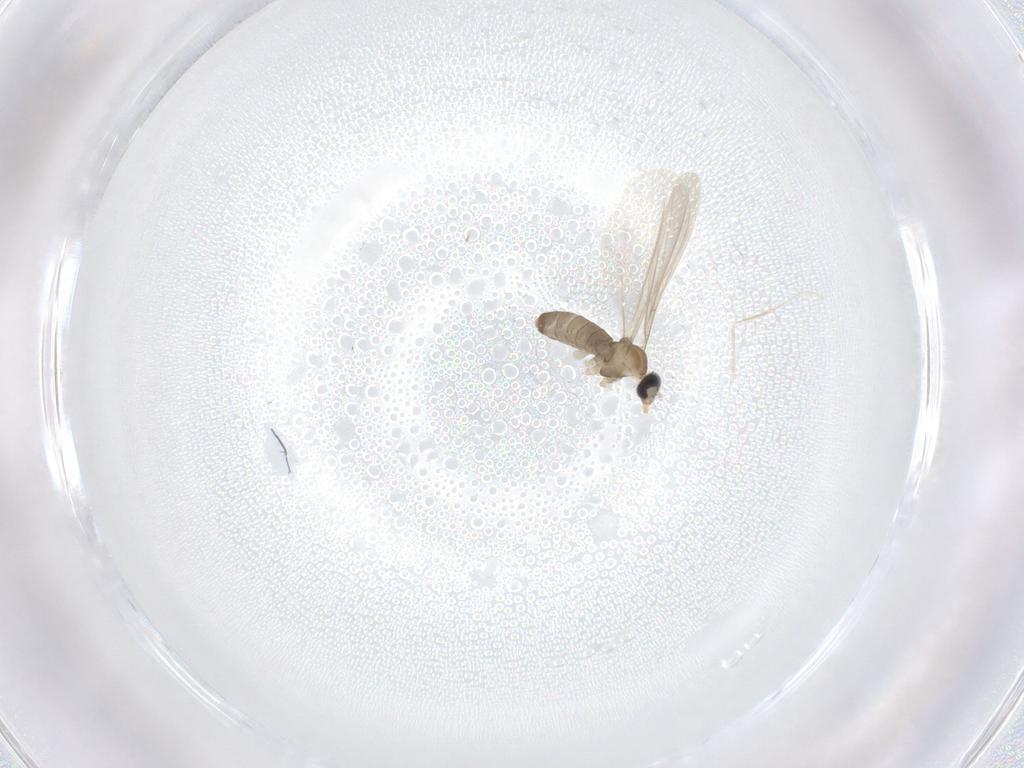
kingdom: Animalia
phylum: Arthropoda
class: Insecta
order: Diptera
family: Cecidomyiidae
